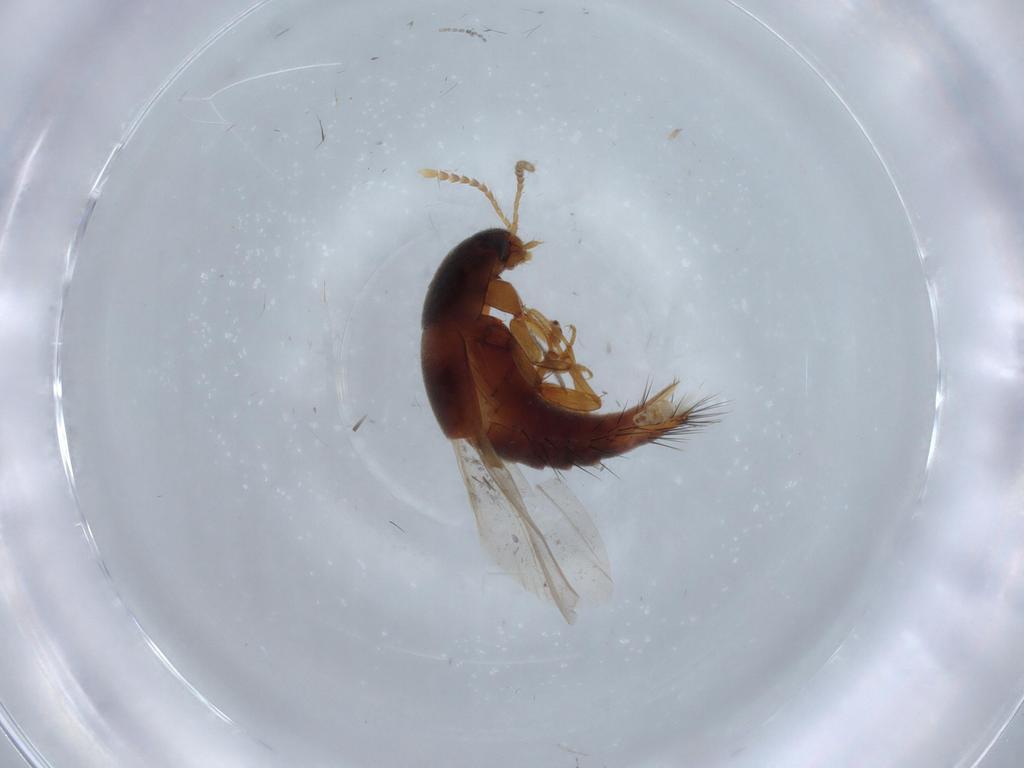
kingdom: Animalia
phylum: Arthropoda
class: Insecta
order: Coleoptera
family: Staphylinidae
